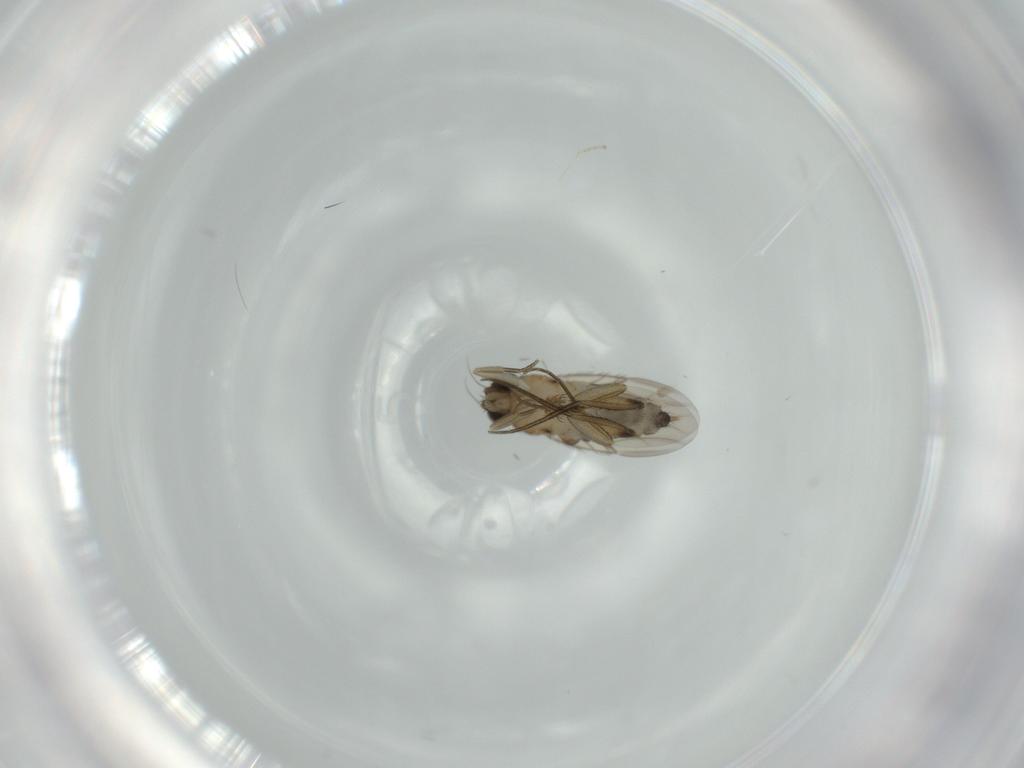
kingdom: Animalia
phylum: Arthropoda
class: Insecta
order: Diptera
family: Phoridae
